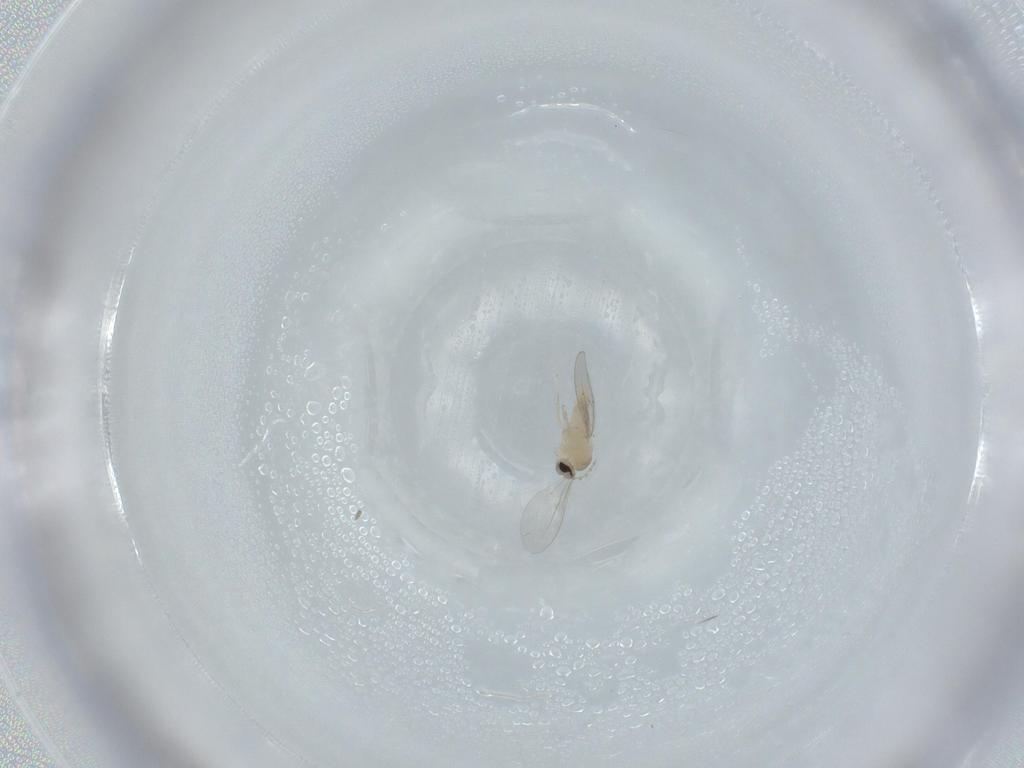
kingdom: Animalia
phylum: Arthropoda
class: Insecta
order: Diptera
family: Cecidomyiidae
